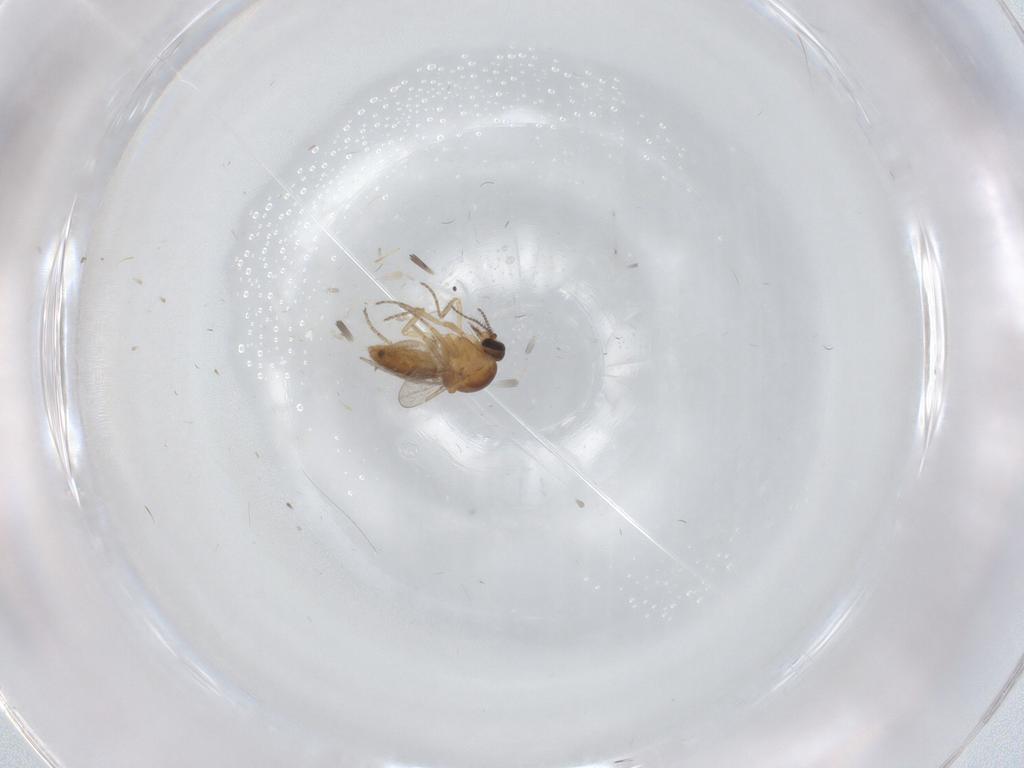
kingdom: Animalia
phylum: Arthropoda
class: Insecta
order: Diptera
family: Ceratopogonidae
